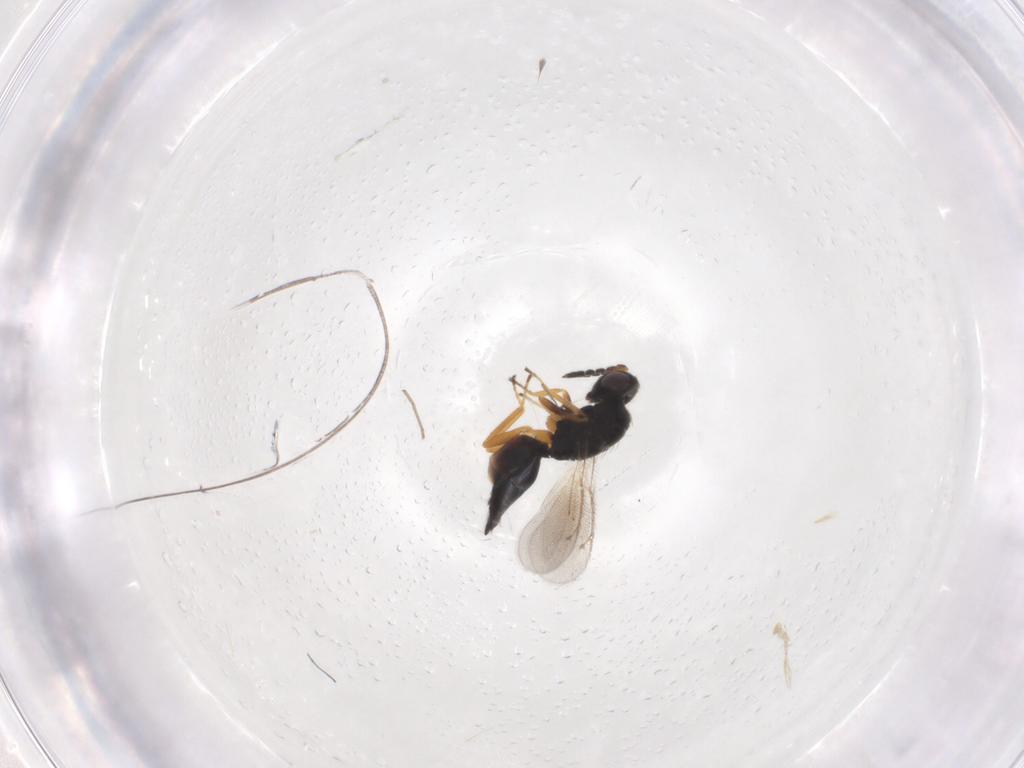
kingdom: Animalia
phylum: Arthropoda
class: Insecta
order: Hymenoptera
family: Eulophidae
